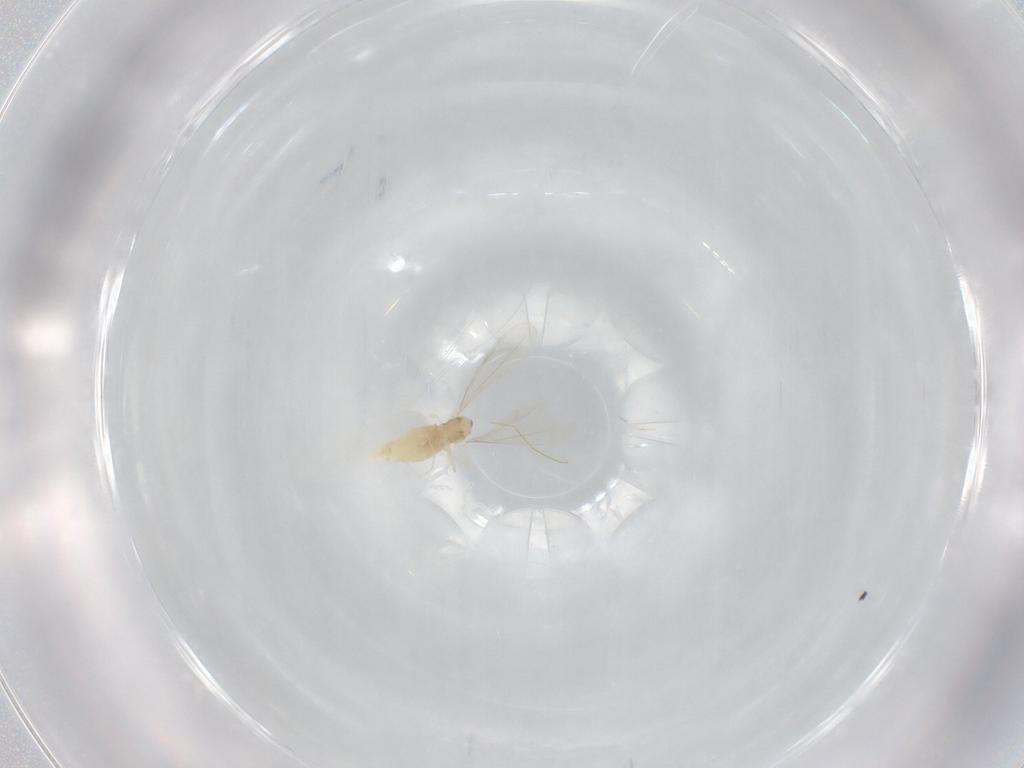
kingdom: Animalia
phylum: Arthropoda
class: Insecta
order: Diptera
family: Cecidomyiidae
